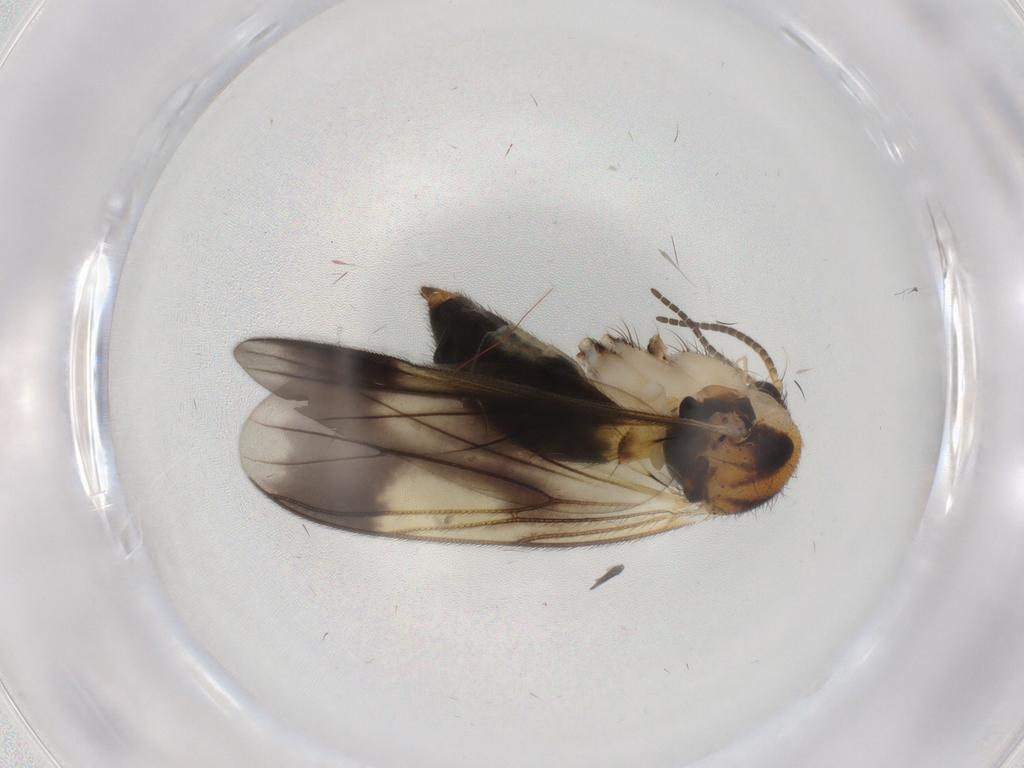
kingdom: Animalia
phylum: Arthropoda
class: Insecta
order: Diptera
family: Mycetophilidae
